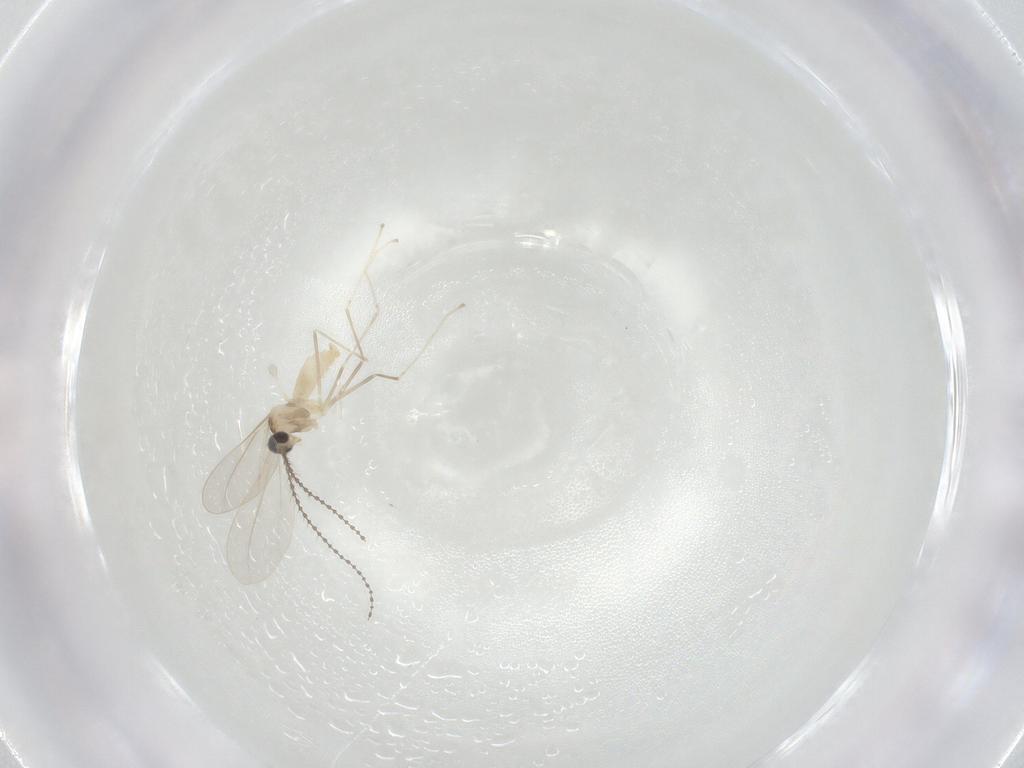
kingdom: Animalia
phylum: Arthropoda
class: Insecta
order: Diptera
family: Cecidomyiidae
